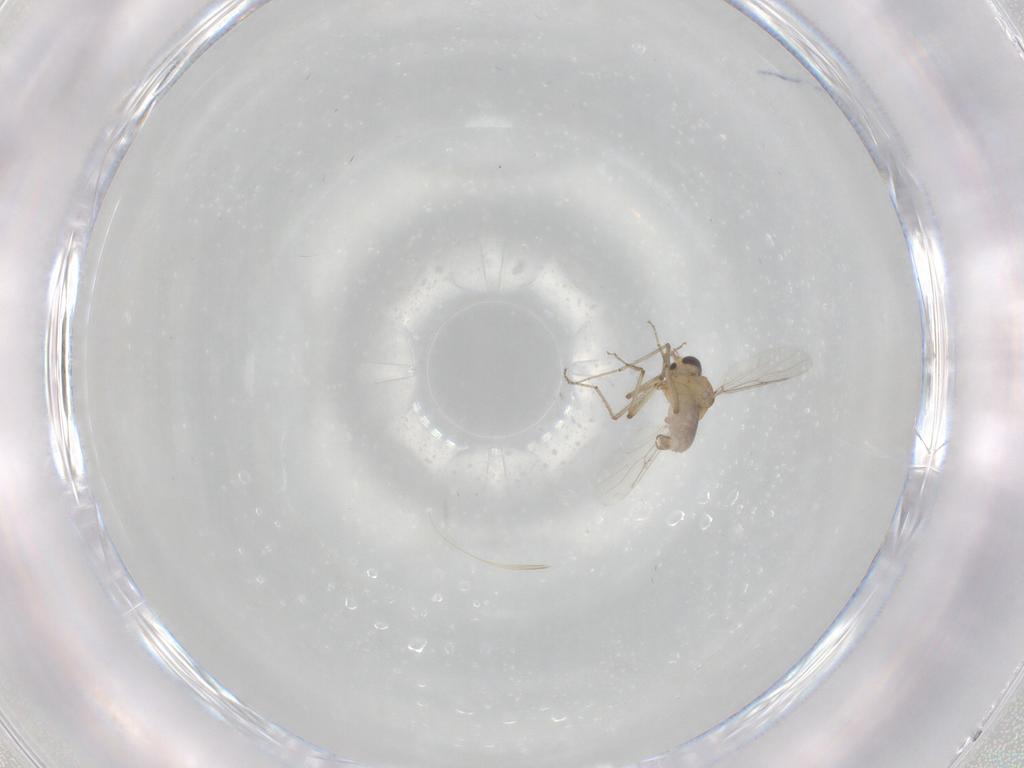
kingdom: Animalia
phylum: Arthropoda
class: Insecta
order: Diptera
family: Ceratopogonidae
